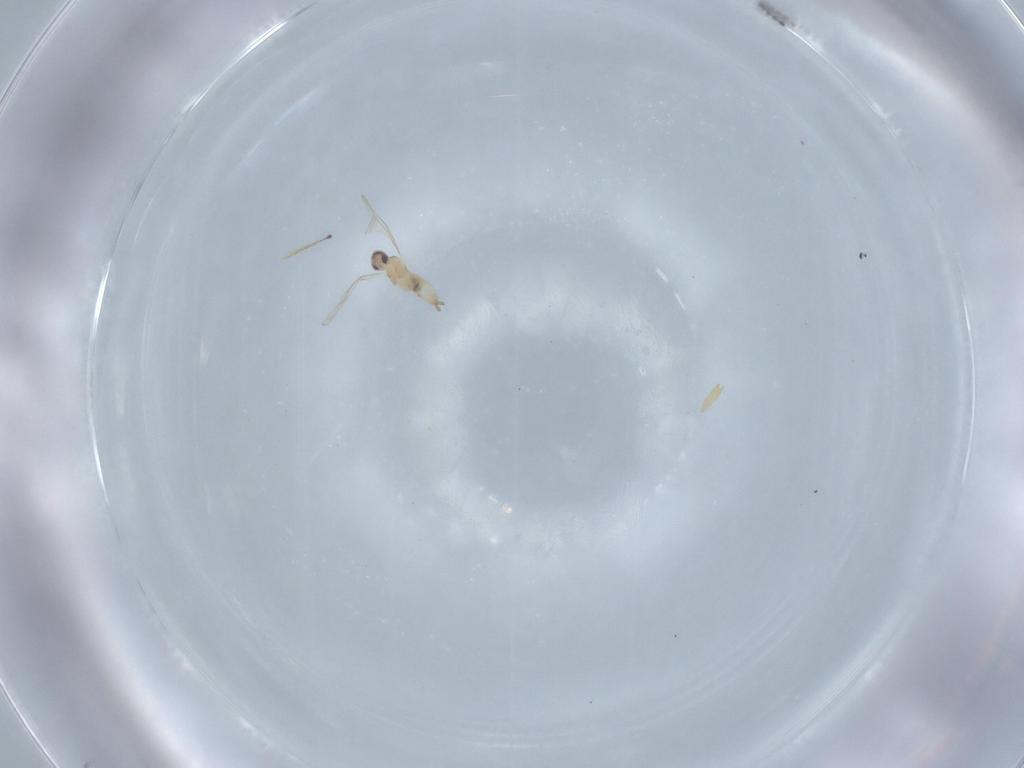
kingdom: Animalia
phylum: Arthropoda
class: Insecta
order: Diptera
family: Cecidomyiidae
